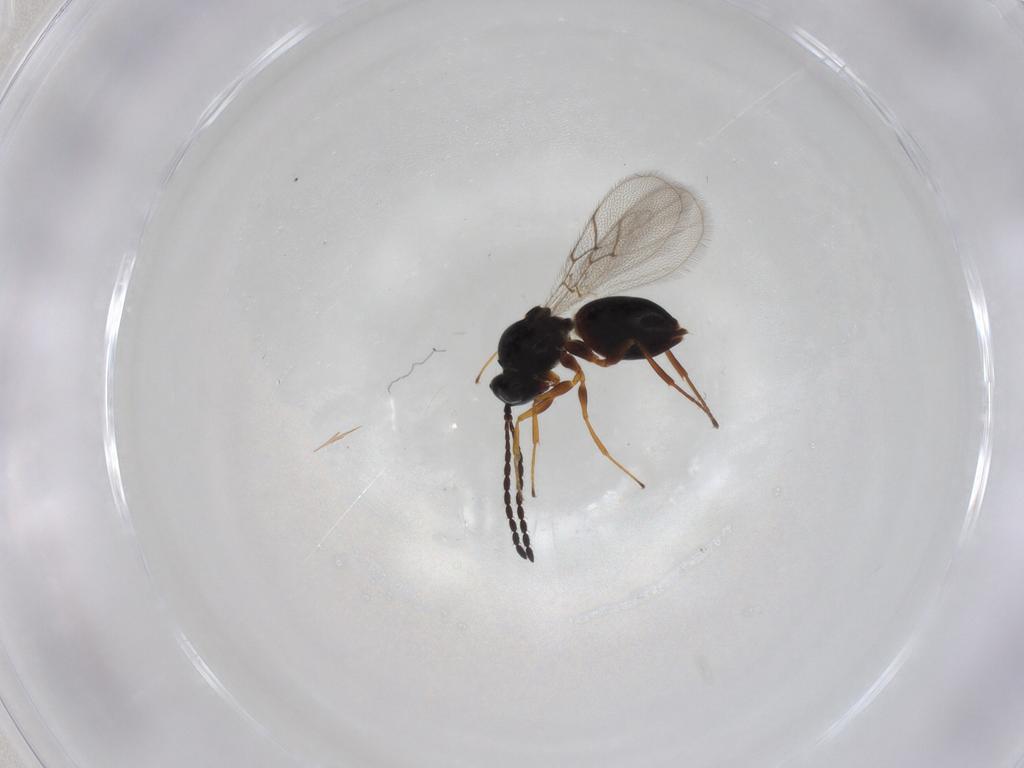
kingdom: Animalia
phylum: Arthropoda
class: Insecta
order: Hymenoptera
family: Figitidae
